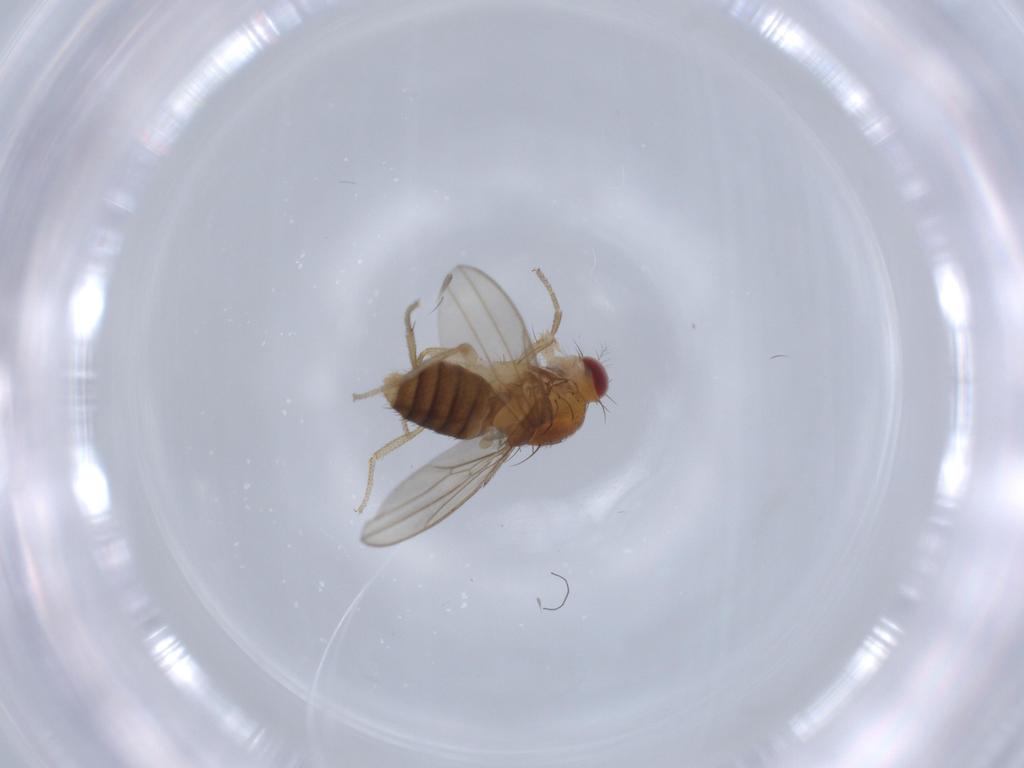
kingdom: Animalia
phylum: Arthropoda
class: Insecta
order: Diptera
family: Drosophilidae
